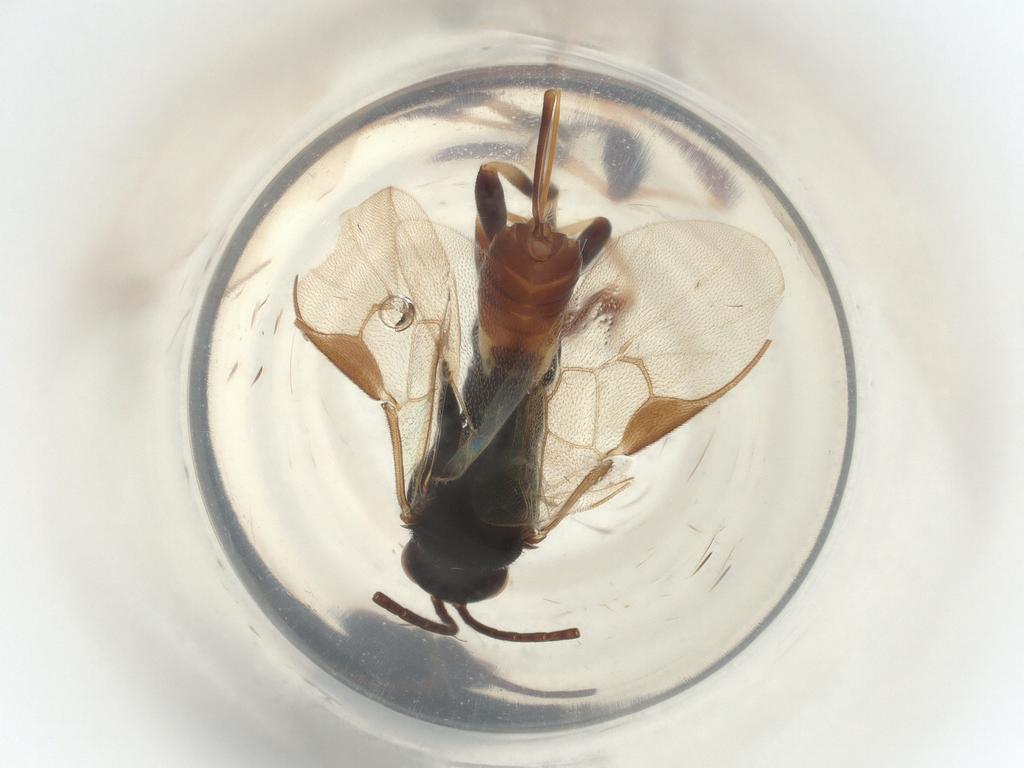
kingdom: Animalia
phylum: Arthropoda
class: Insecta
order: Hymenoptera
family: Braconidae
